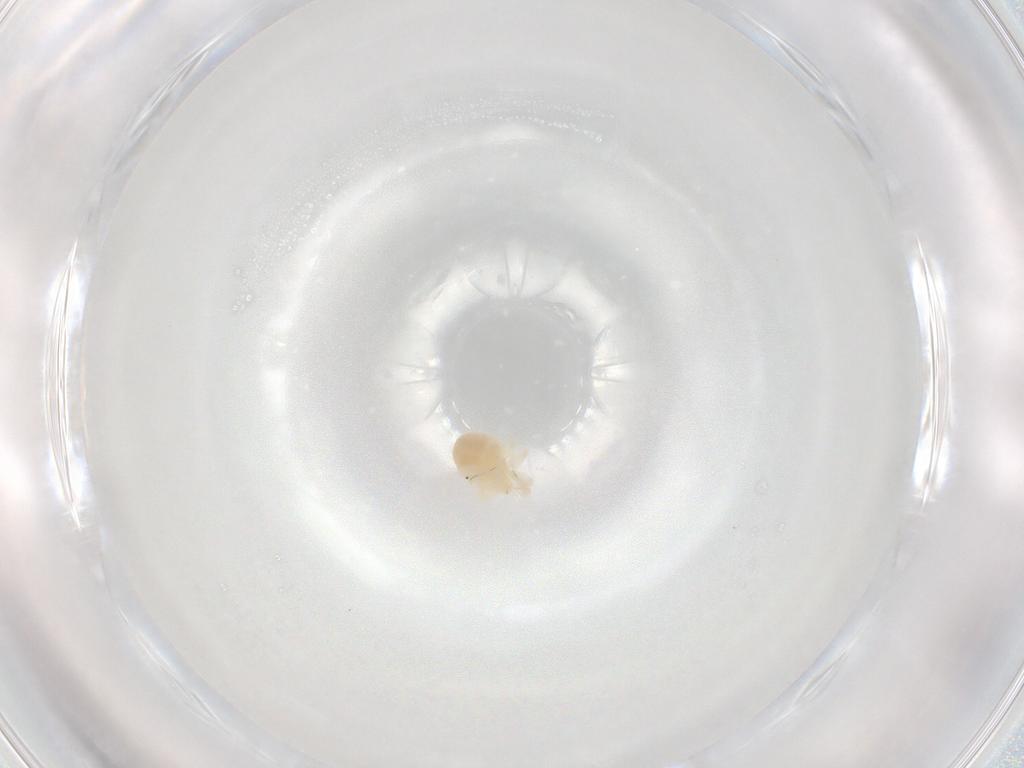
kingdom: Animalia
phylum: Arthropoda
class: Arachnida
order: Trombidiformes
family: Anystidae
